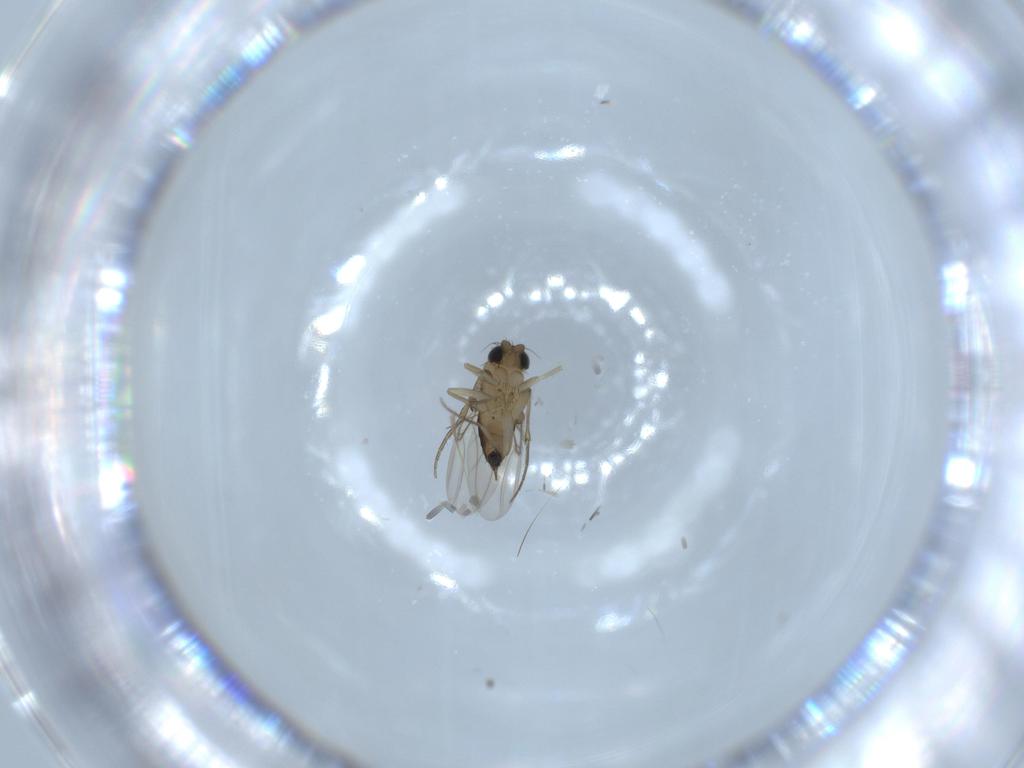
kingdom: Animalia
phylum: Arthropoda
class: Insecta
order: Diptera
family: Phoridae
